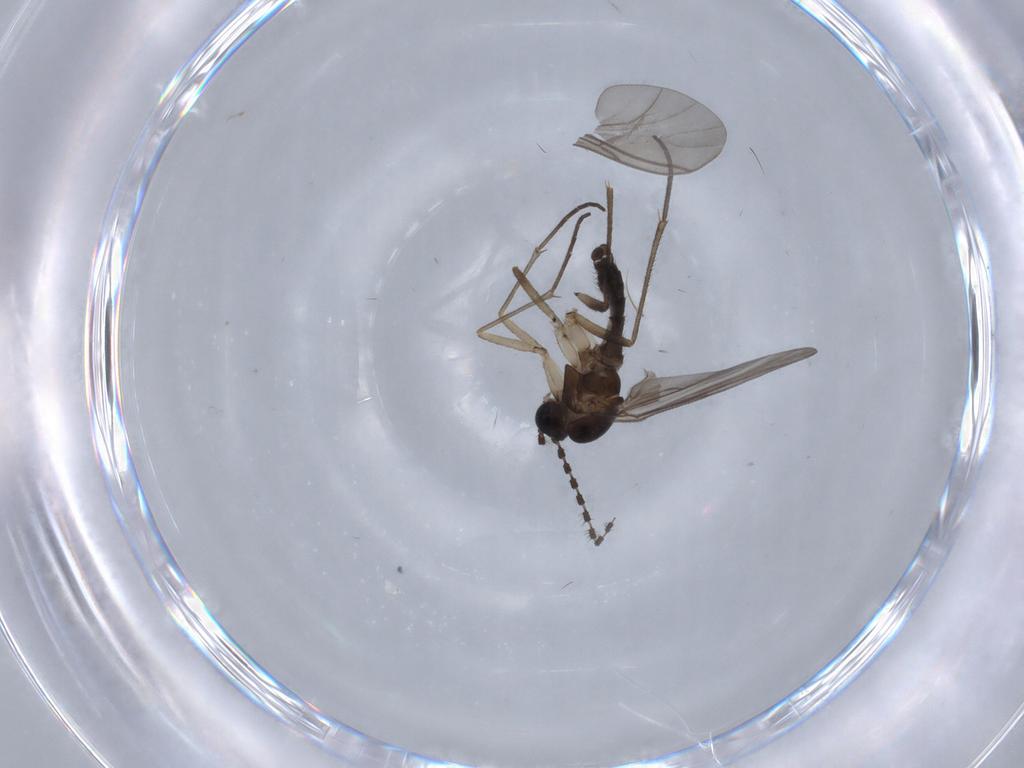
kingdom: Animalia
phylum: Arthropoda
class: Insecta
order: Diptera
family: Sciaridae
